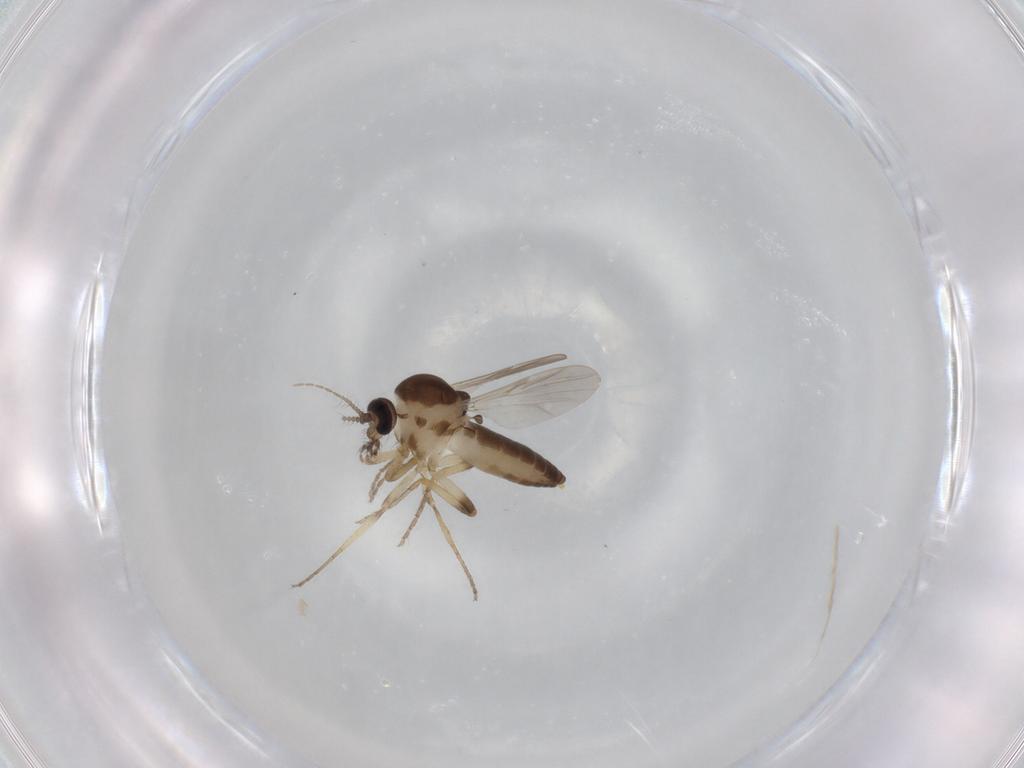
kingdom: Animalia
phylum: Arthropoda
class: Insecta
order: Diptera
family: Ceratopogonidae
